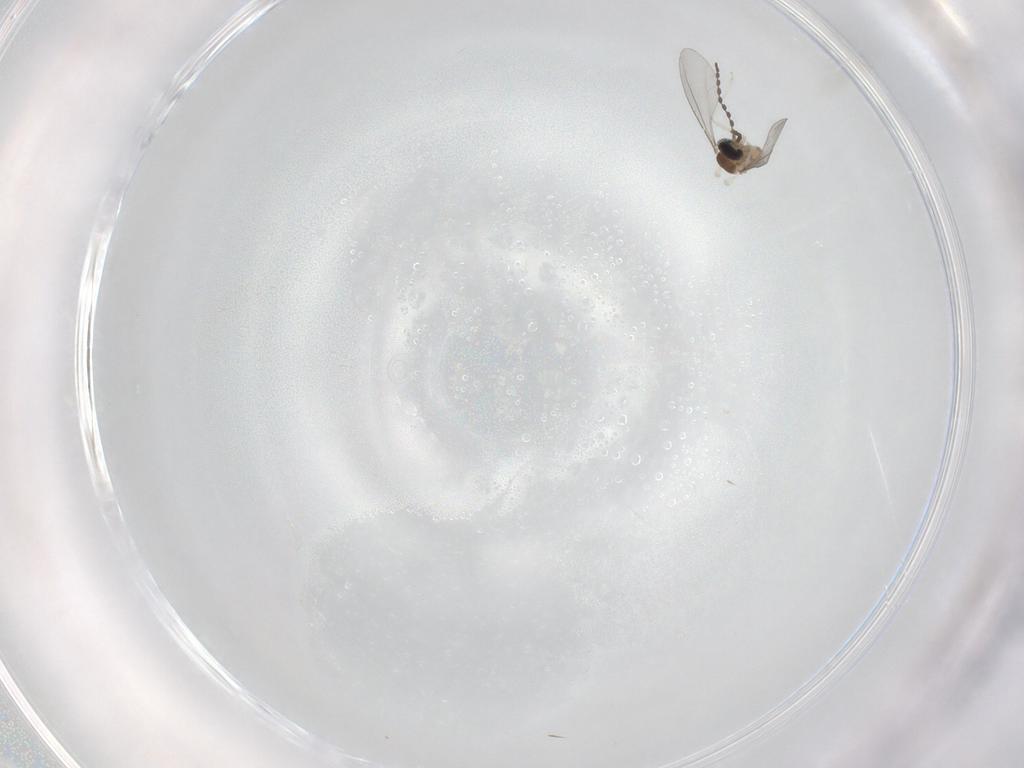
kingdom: Animalia
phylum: Arthropoda
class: Insecta
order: Diptera
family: Cecidomyiidae
